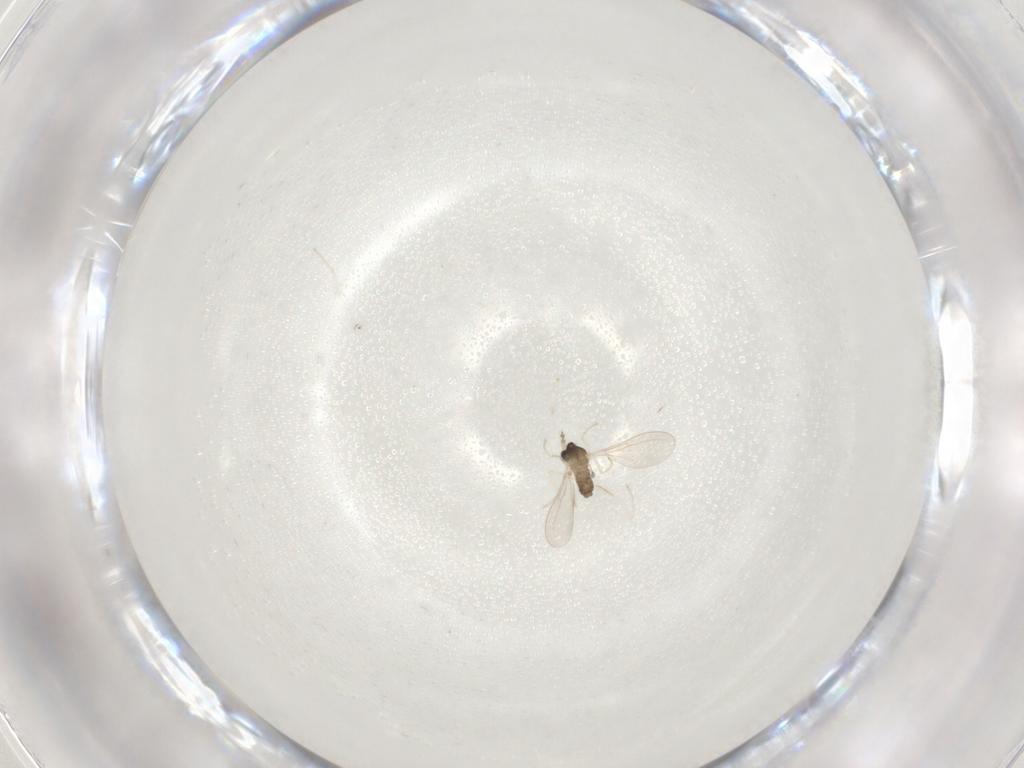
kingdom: Animalia
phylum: Arthropoda
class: Insecta
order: Diptera
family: Cecidomyiidae
